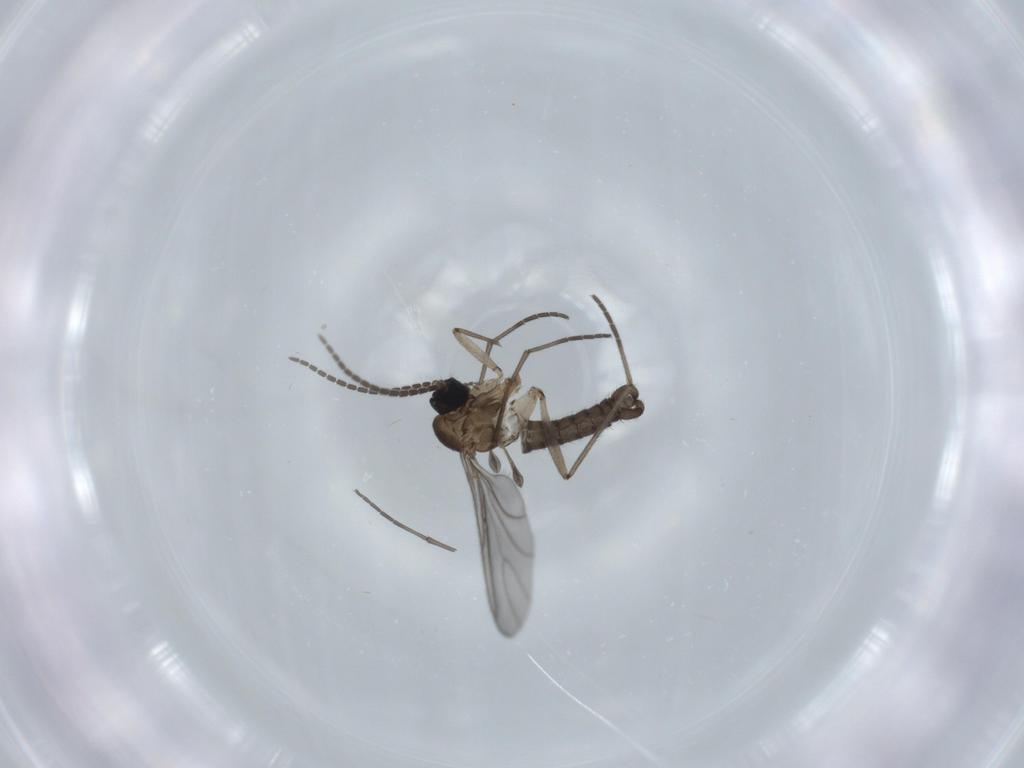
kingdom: Animalia
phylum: Arthropoda
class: Insecta
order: Diptera
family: Sciaridae
